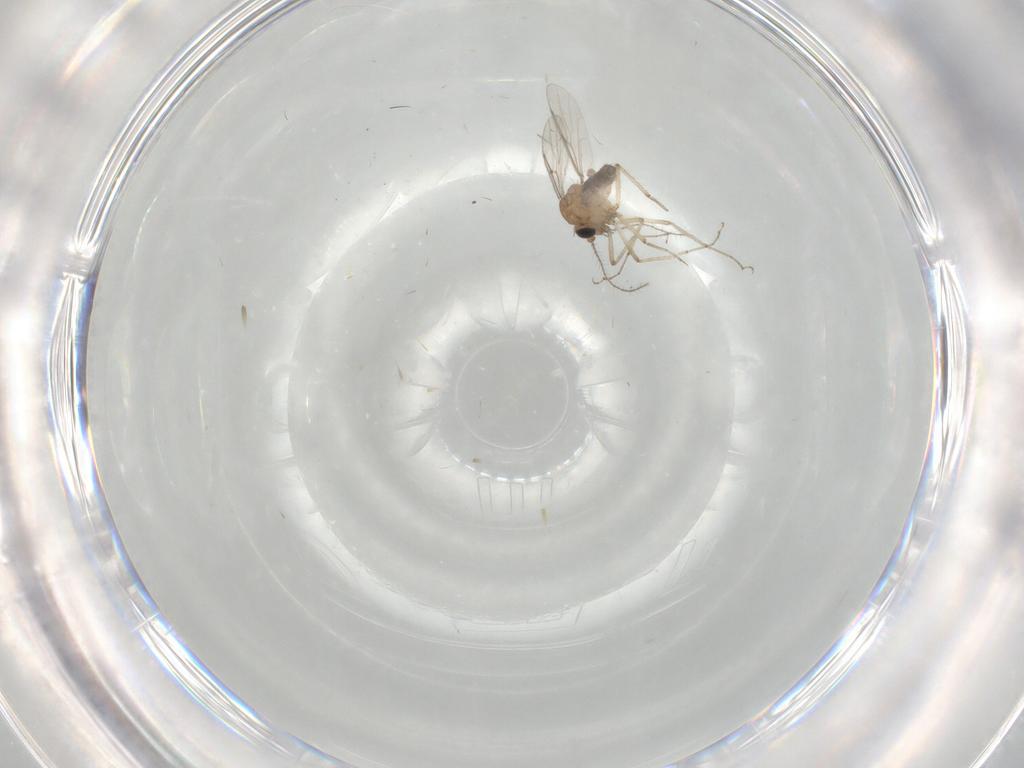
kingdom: Animalia
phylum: Arthropoda
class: Insecta
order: Diptera
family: Ceratopogonidae
